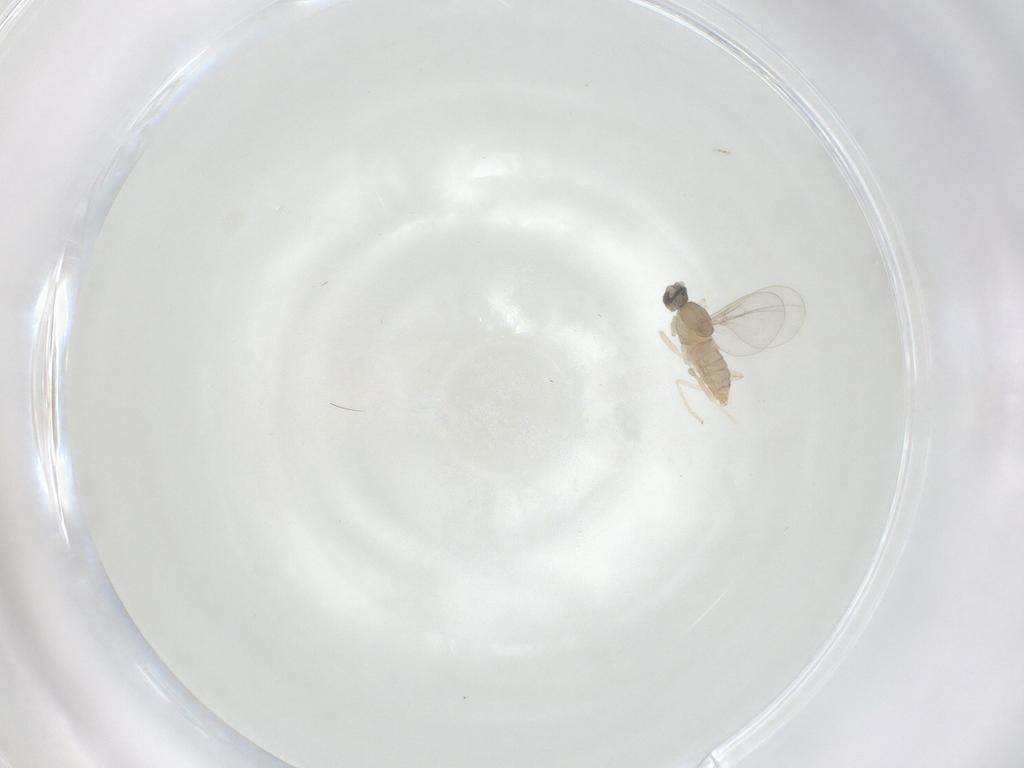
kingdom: Animalia
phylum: Arthropoda
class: Insecta
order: Diptera
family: Cecidomyiidae
